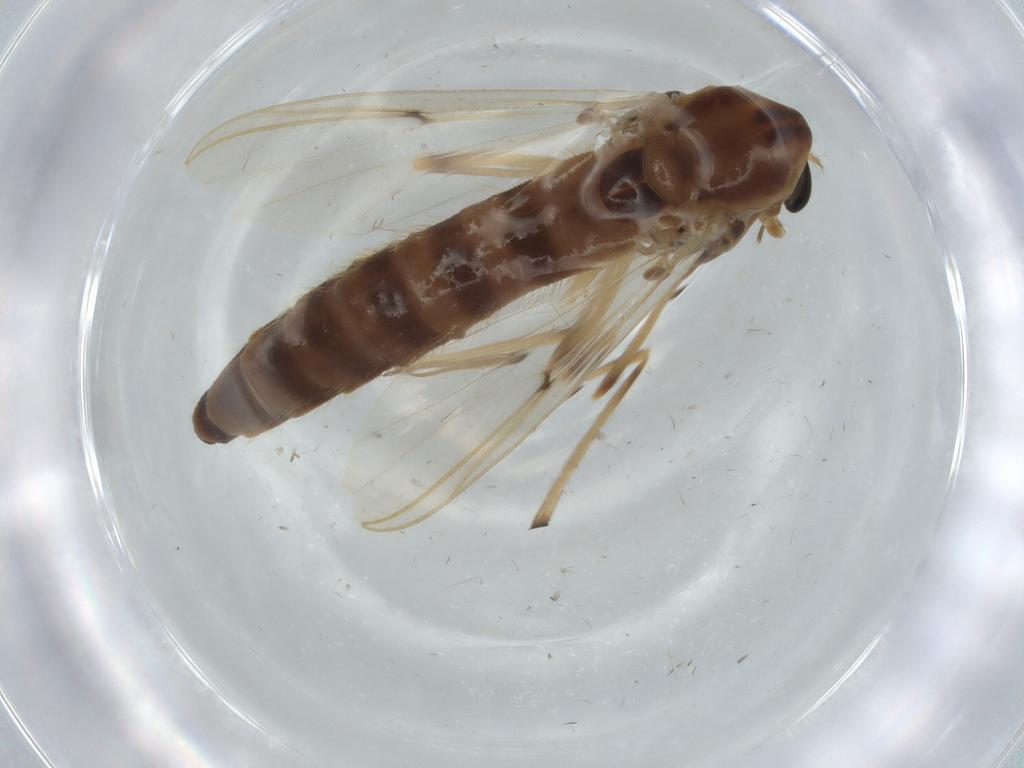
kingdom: Animalia
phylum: Arthropoda
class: Insecta
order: Diptera
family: Chironomidae
